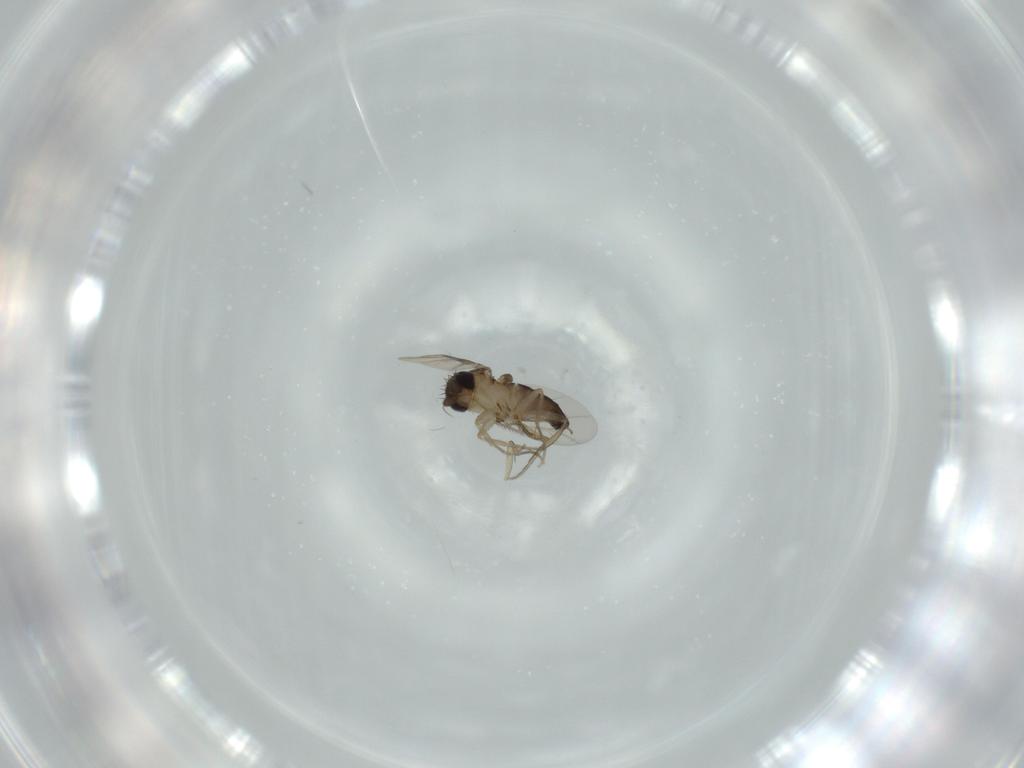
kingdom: Animalia
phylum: Arthropoda
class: Insecta
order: Diptera
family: Phoridae
